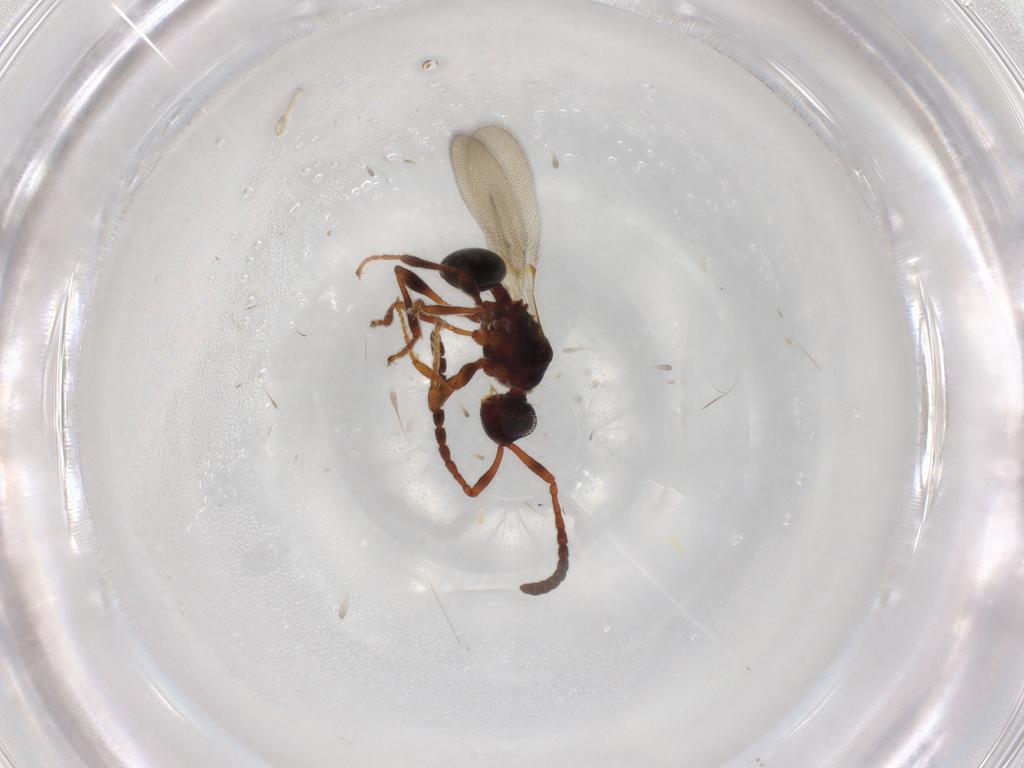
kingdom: Animalia
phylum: Arthropoda
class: Insecta
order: Hymenoptera
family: Diapriidae
